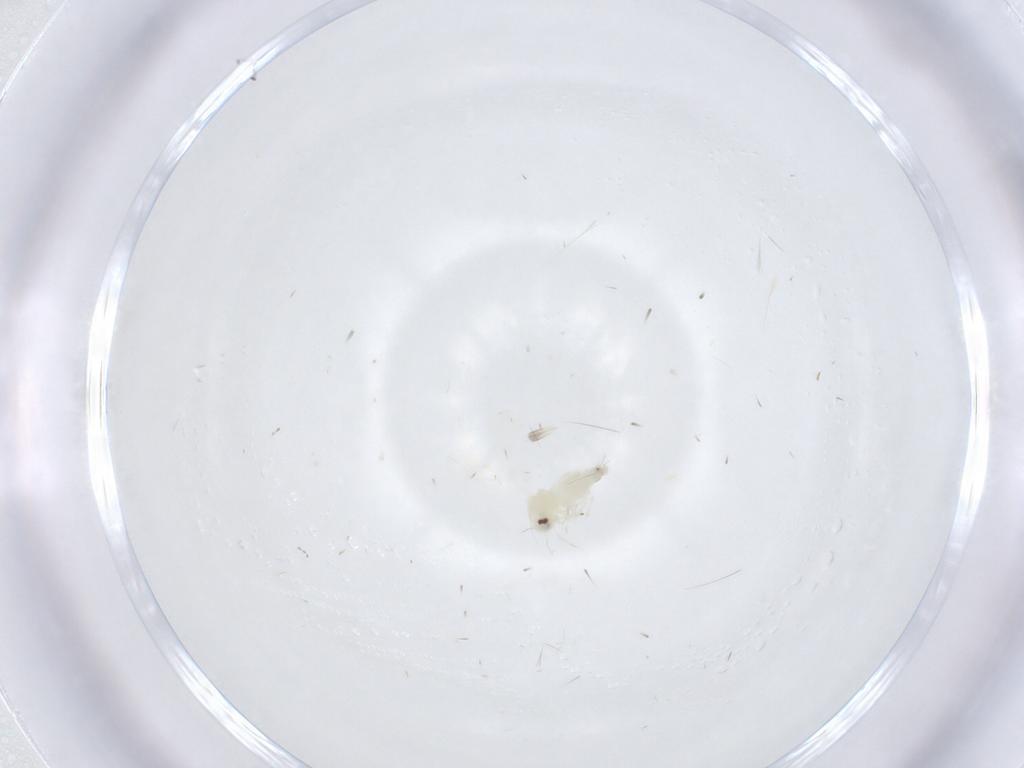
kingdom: Animalia
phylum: Arthropoda
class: Insecta
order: Hemiptera
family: Aleyrodidae
